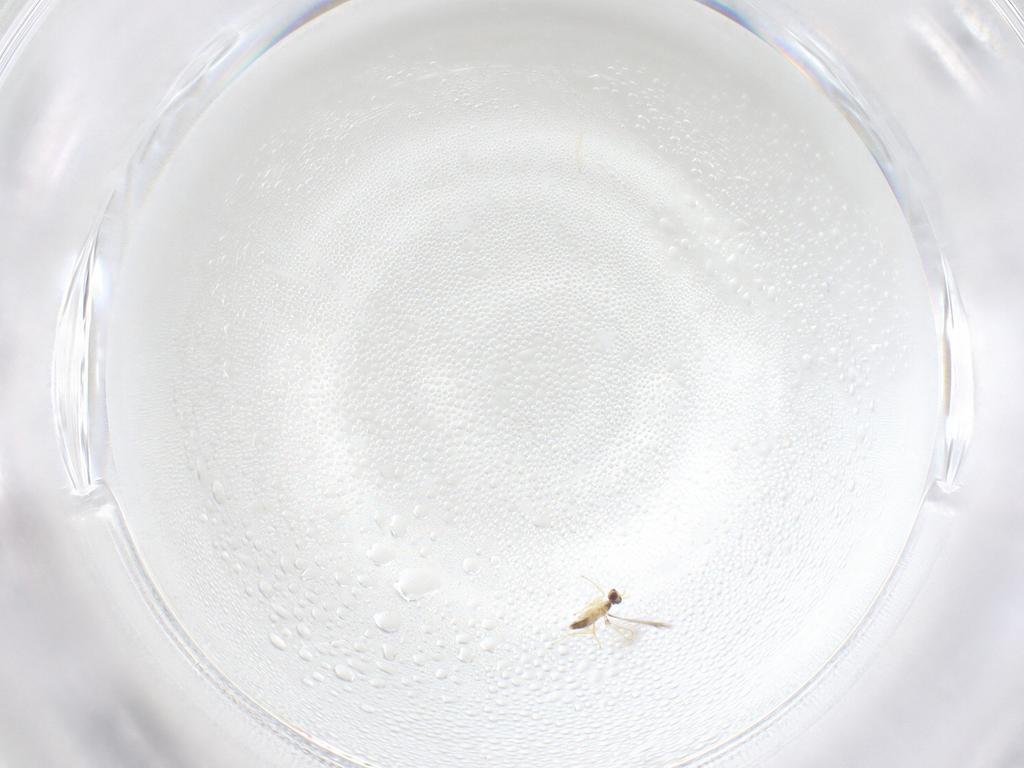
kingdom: Animalia
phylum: Arthropoda
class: Insecta
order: Hymenoptera
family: Mymaridae
